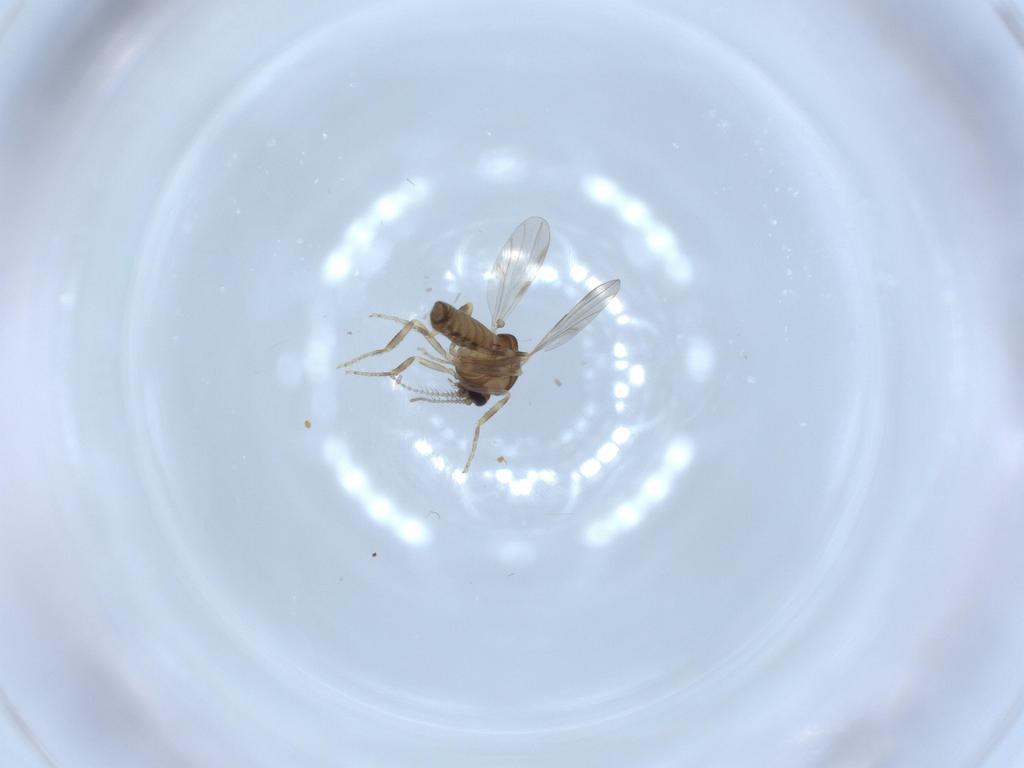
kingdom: Animalia
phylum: Arthropoda
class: Insecta
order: Diptera
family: Ceratopogonidae
